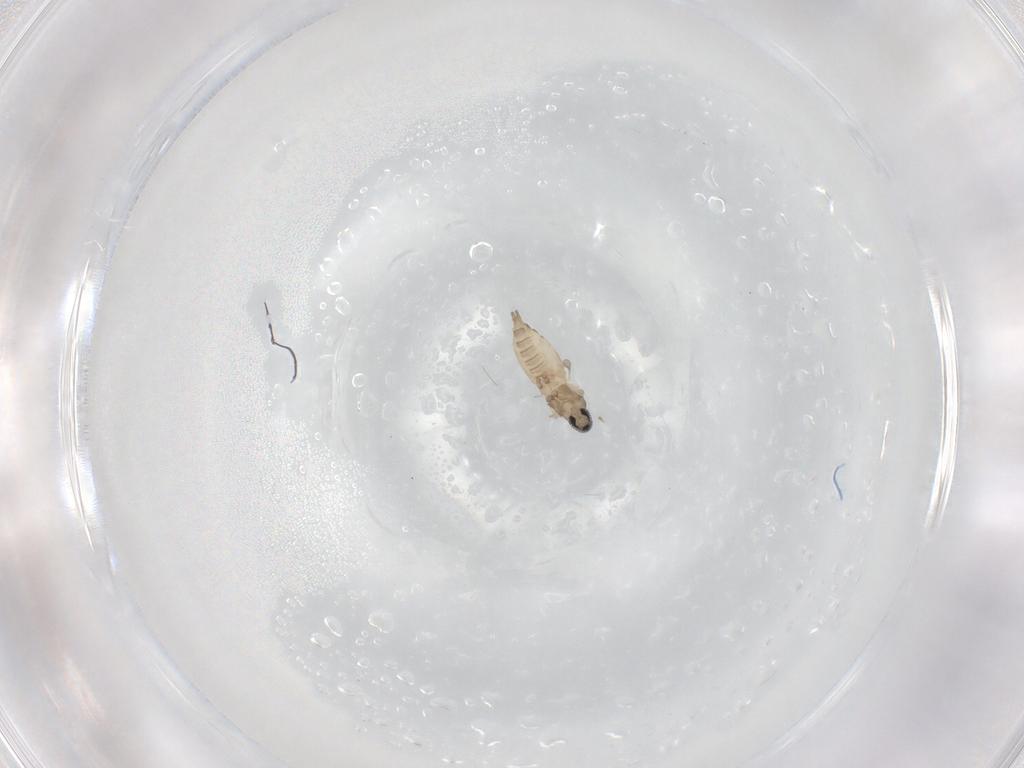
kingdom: Animalia
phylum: Arthropoda
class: Insecta
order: Diptera
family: Cecidomyiidae
